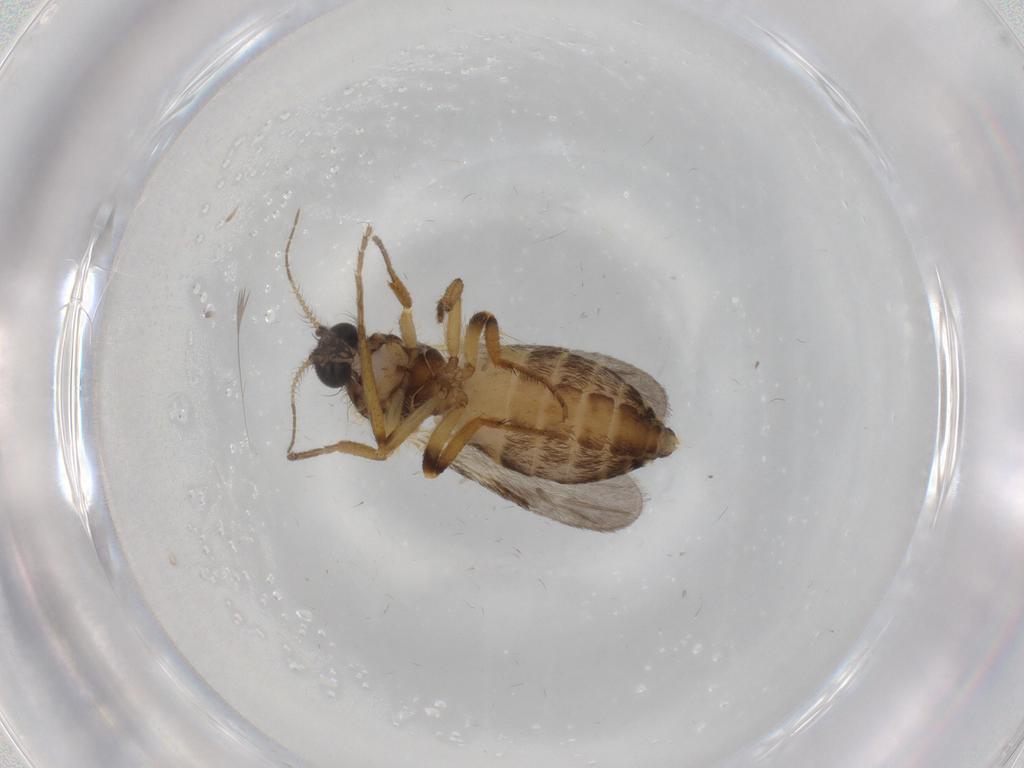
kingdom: Animalia
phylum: Arthropoda
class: Insecta
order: Diptera
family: Ceratopogonidae
